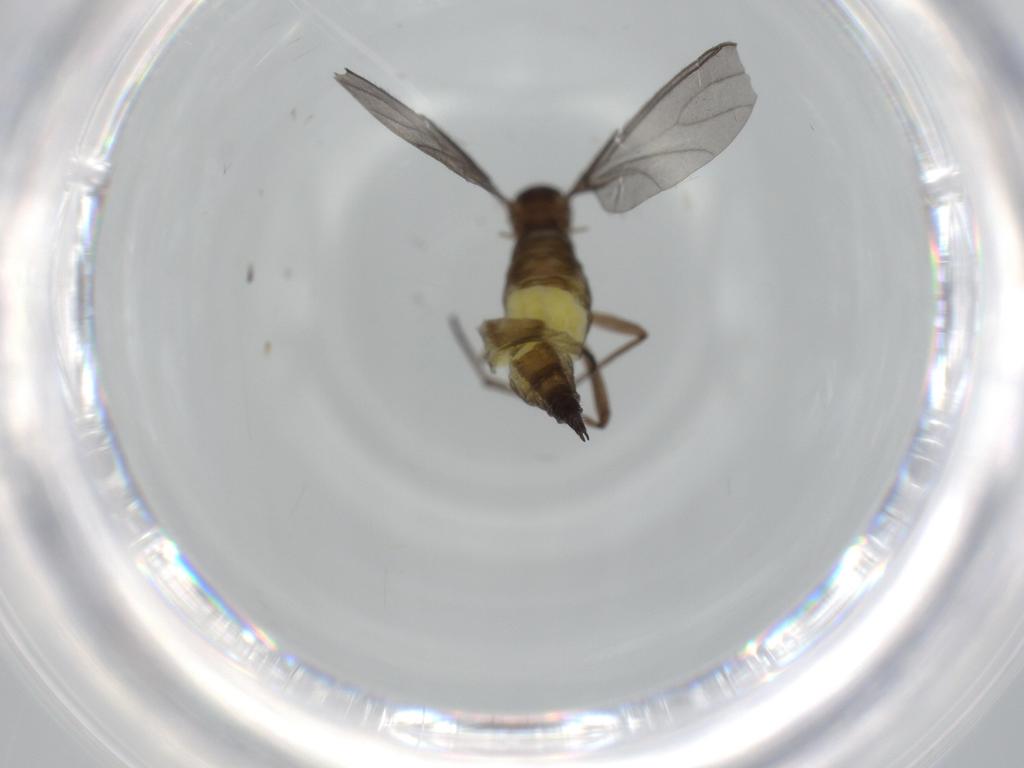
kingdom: Animalia
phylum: Arthropoda
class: Insecta
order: Diptera
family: Sciaridae
